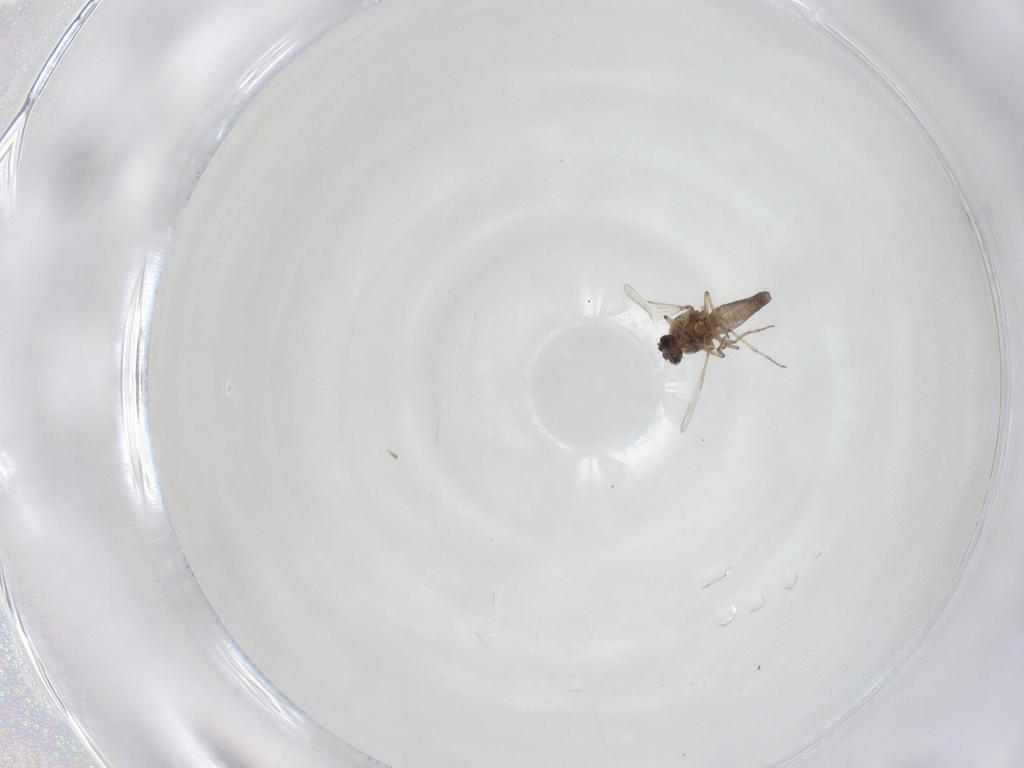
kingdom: Animalia
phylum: Arthropoda
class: Insecta
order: Diptera
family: Ceratopogonidae
